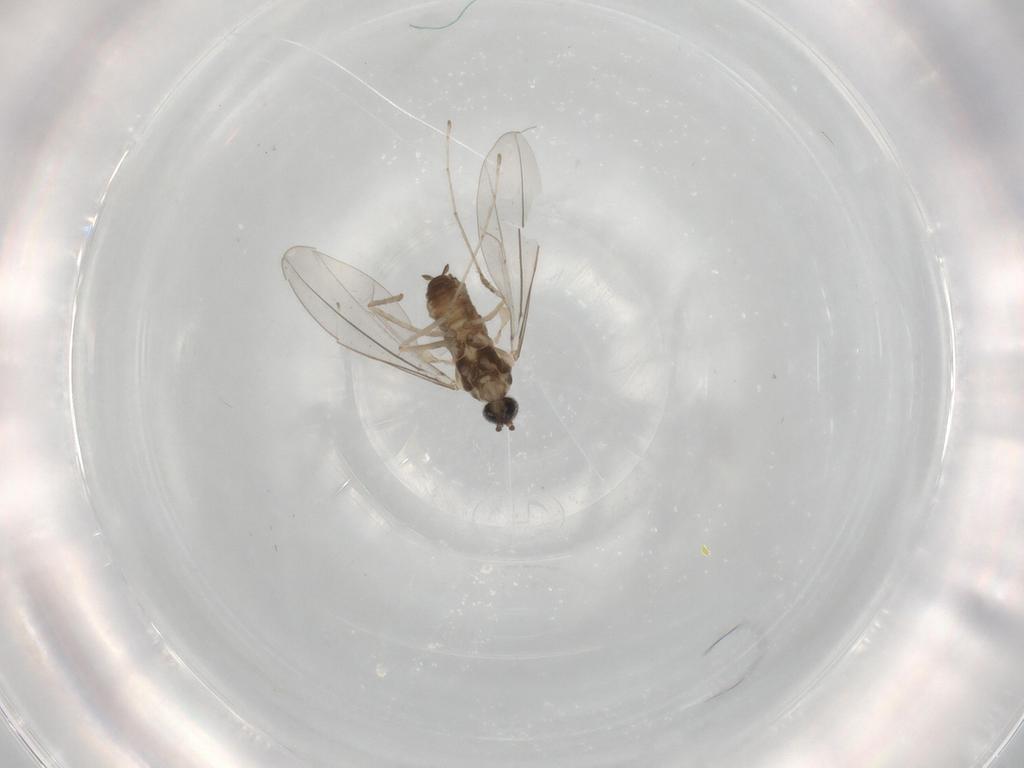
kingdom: Animalia
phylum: Arthropoda
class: Insecta
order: Diptera
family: Cecidomyiidae
